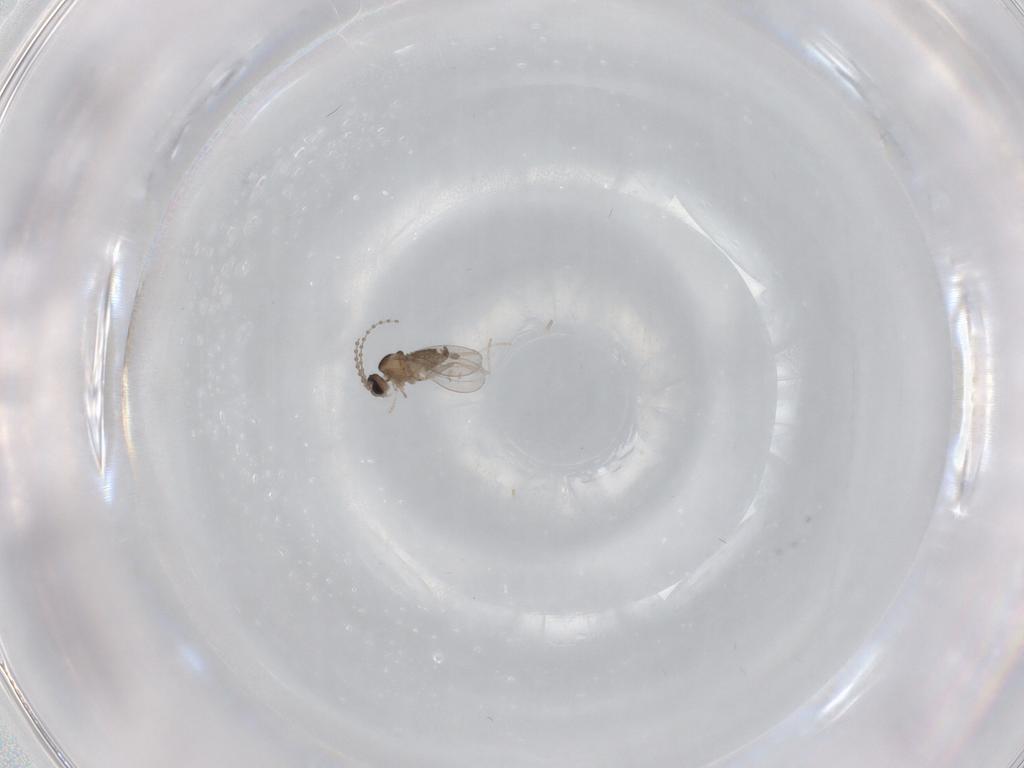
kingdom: Animalia
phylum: Arthropoda
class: Insecta
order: Diptera
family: Cecidomyiidae
